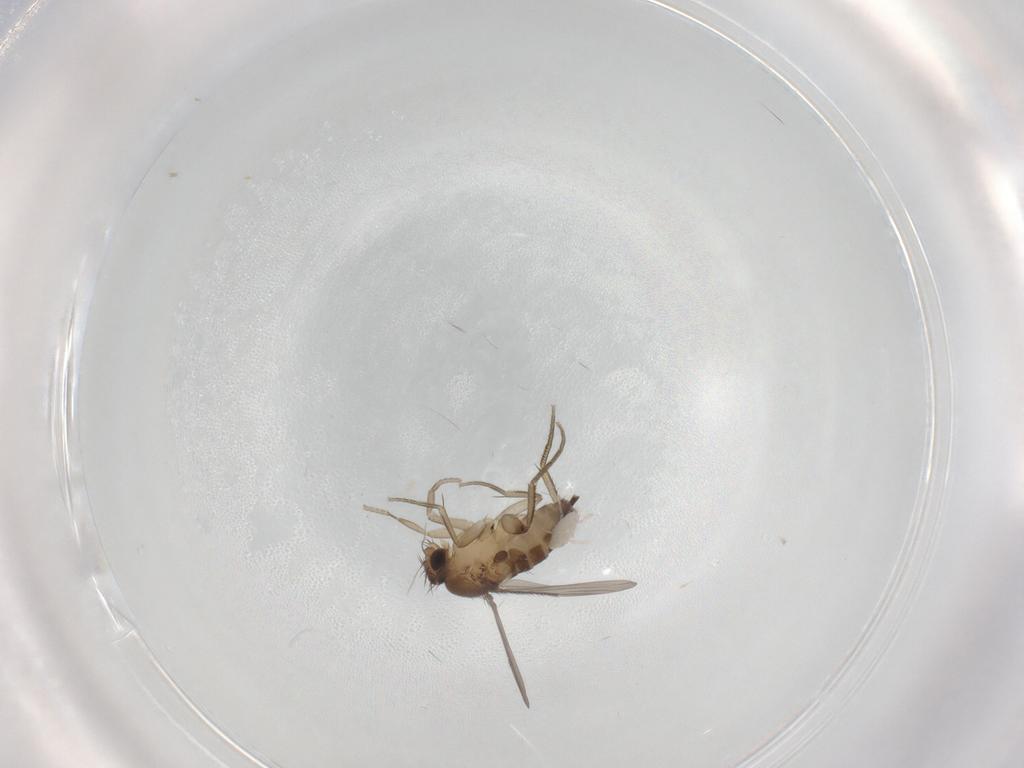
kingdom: Animalia
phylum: Arthropoda
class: Insecta
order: Diptera
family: Phoridae
